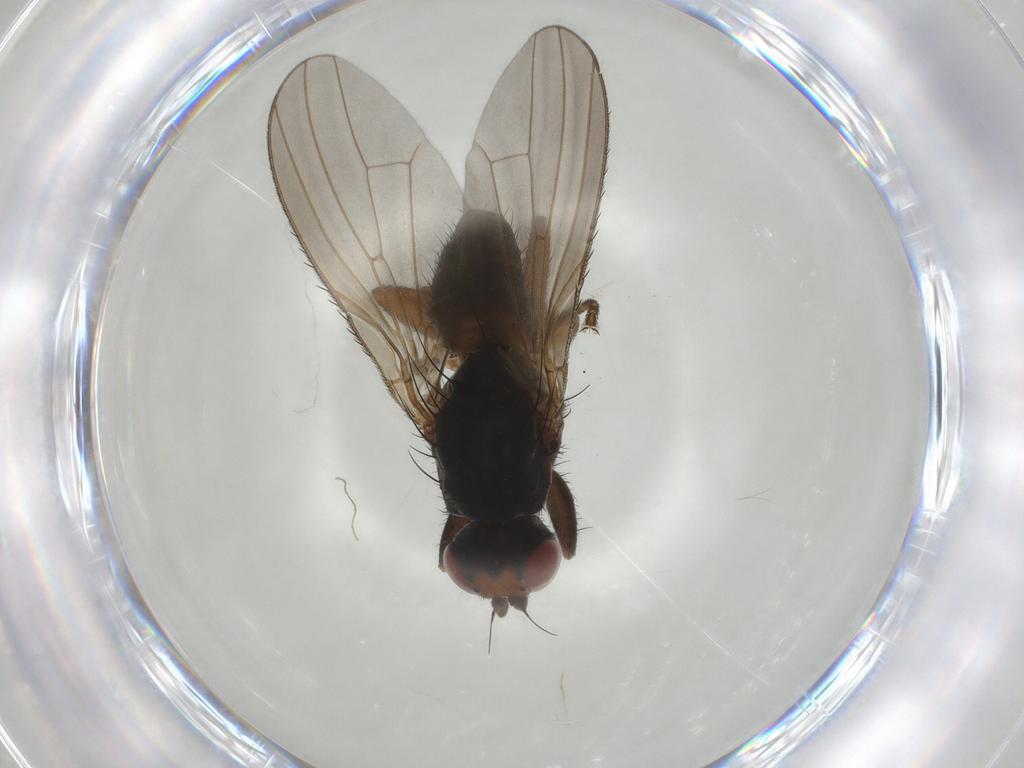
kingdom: Animalia
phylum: Arthropoda
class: Insecta
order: Diptera
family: Heleomyzidae
